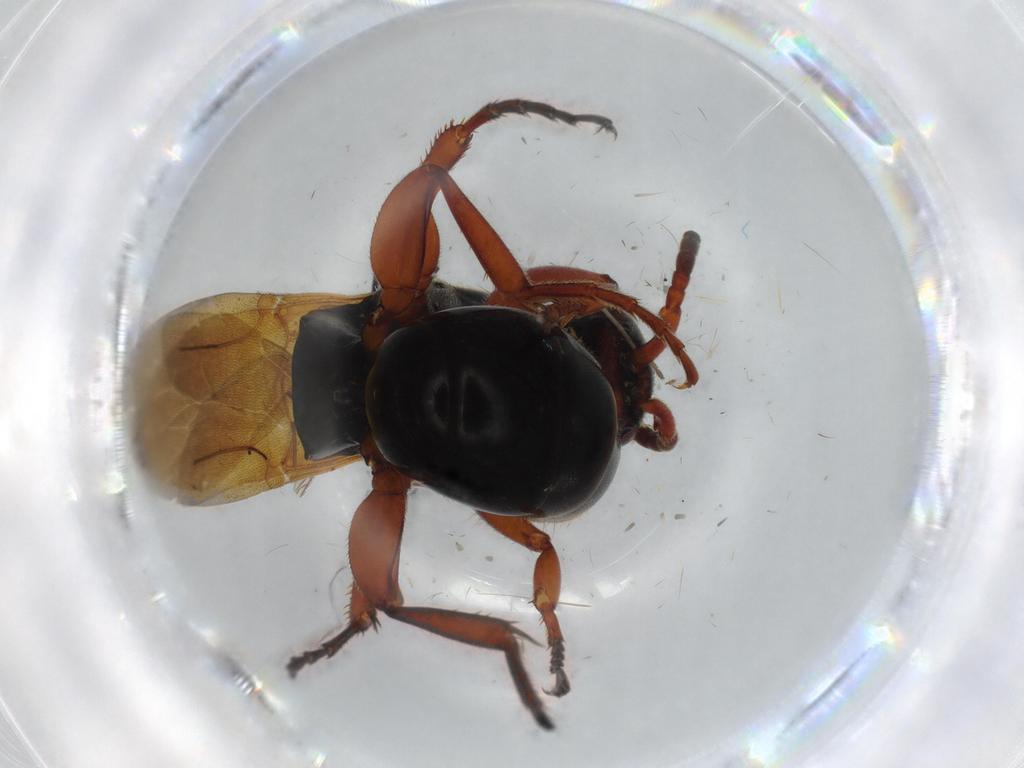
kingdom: Animalia
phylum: Arthropoda
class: Insecta
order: Hymenoptera
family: Bethylidae
